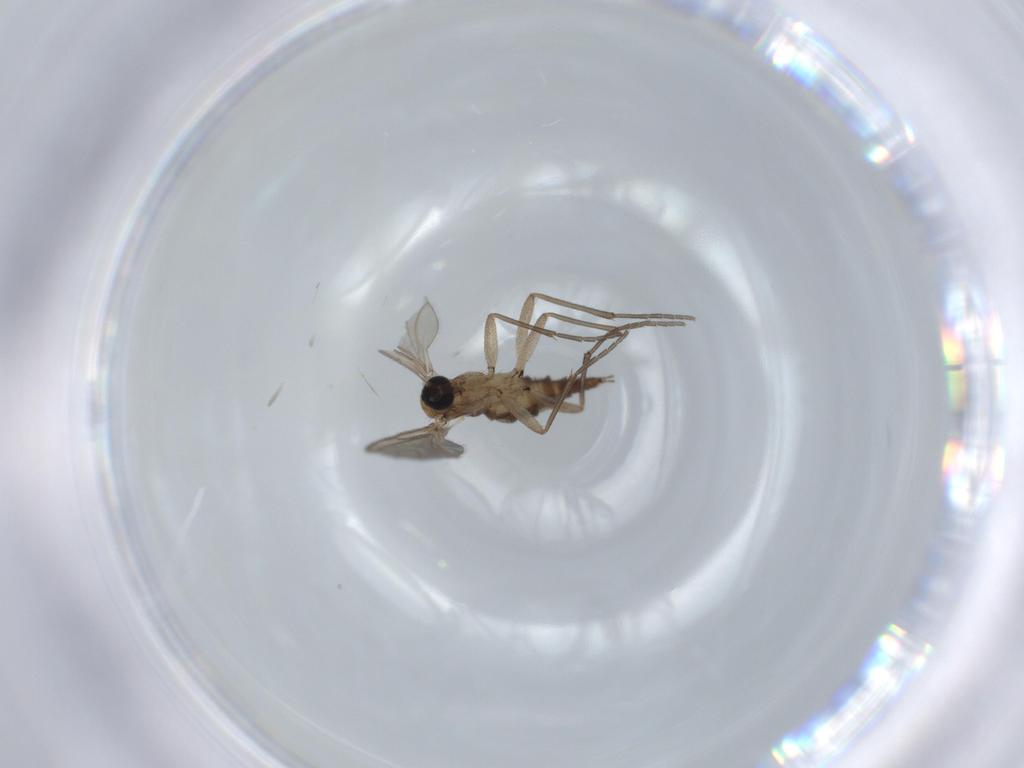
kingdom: Animalia
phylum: Arthropoda
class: Insecta
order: Diptera
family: Sciaridae
